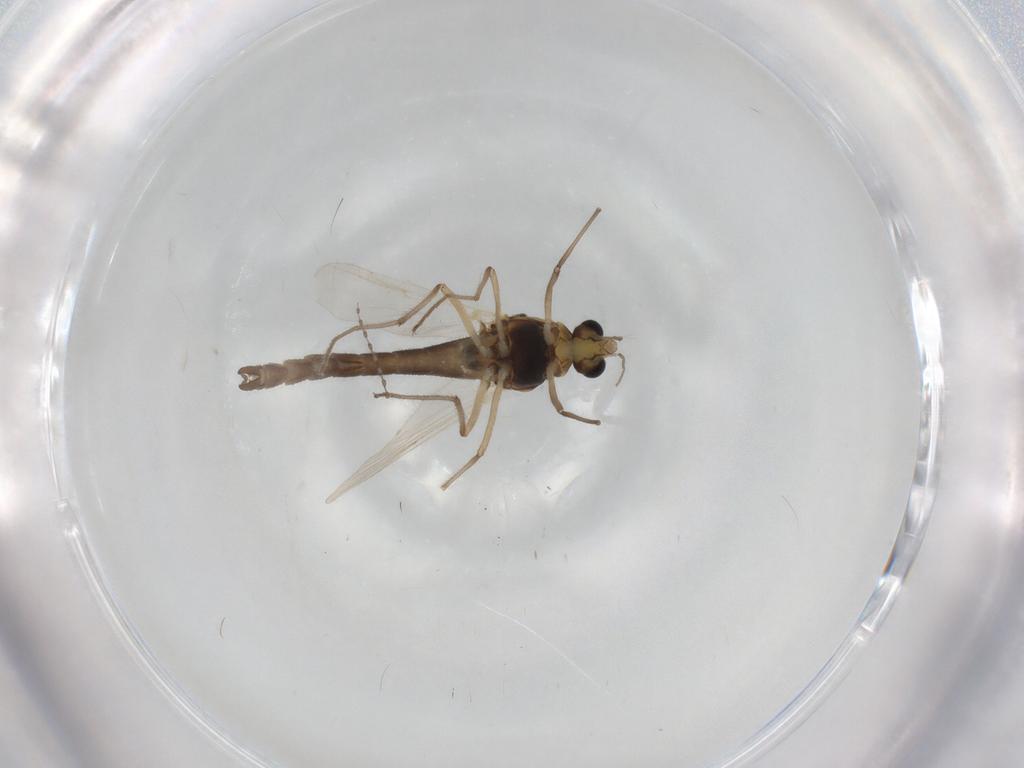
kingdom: Animalia
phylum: Arthropoda
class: Insecta
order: Diptera
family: Chironomidae
